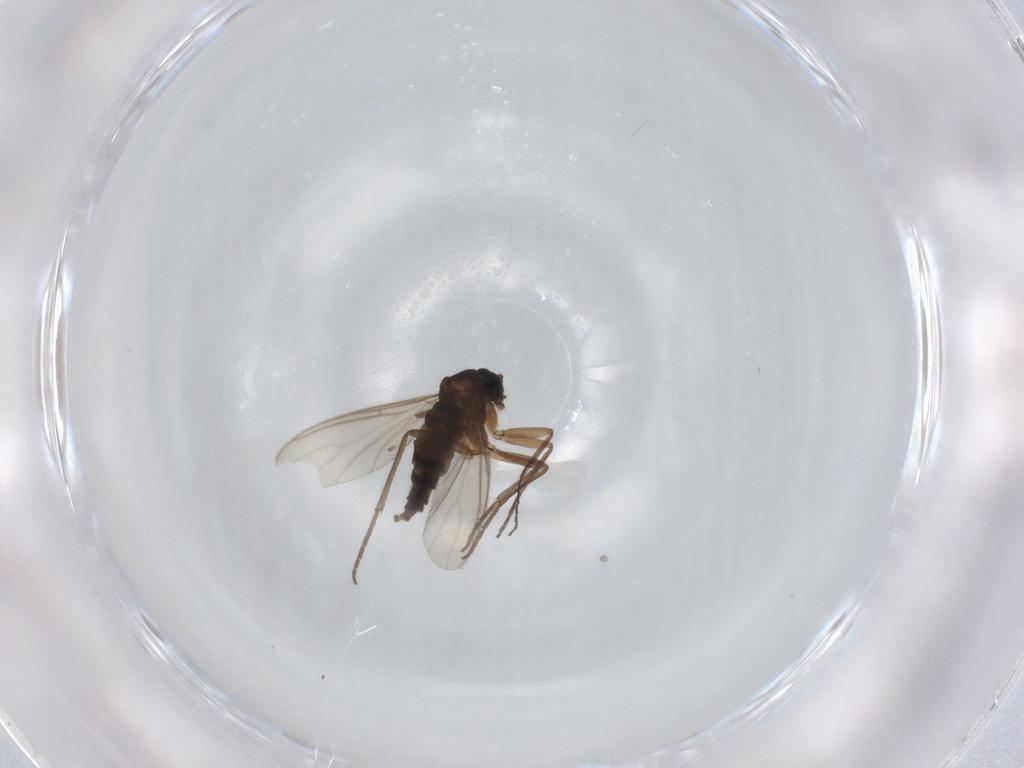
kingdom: Animalia
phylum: Arthropoda
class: Insecta
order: Diptera
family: Sciaridae
